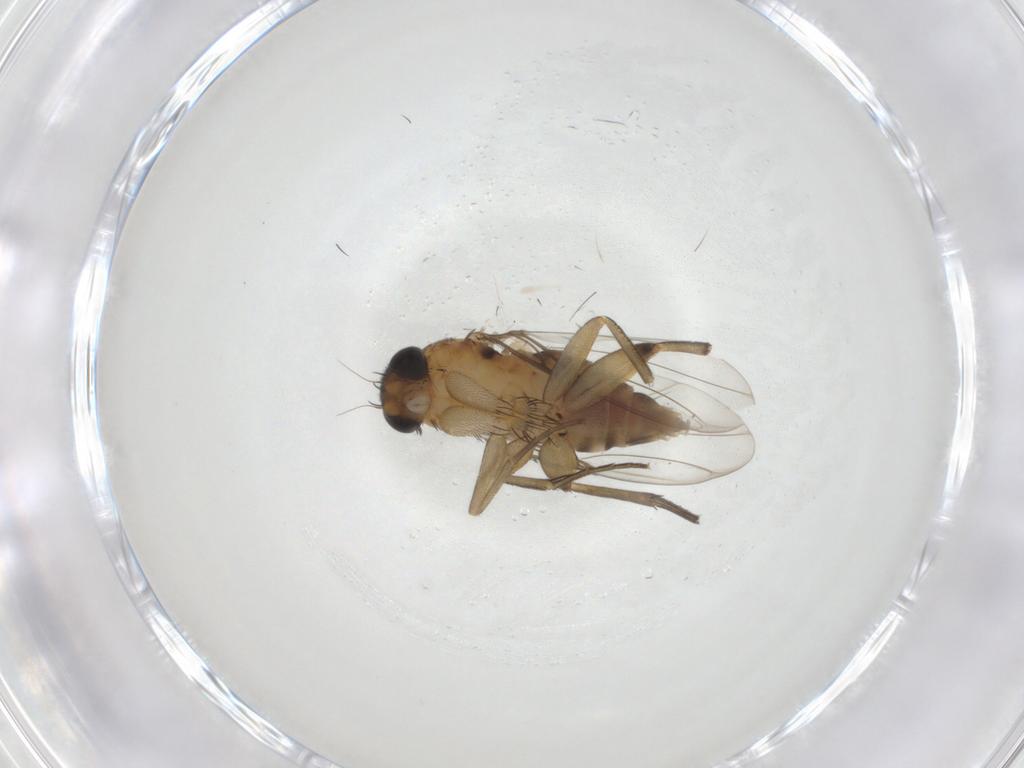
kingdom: Animalia
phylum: Arthropoda
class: Insecta
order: Diptera
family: Phoridae
